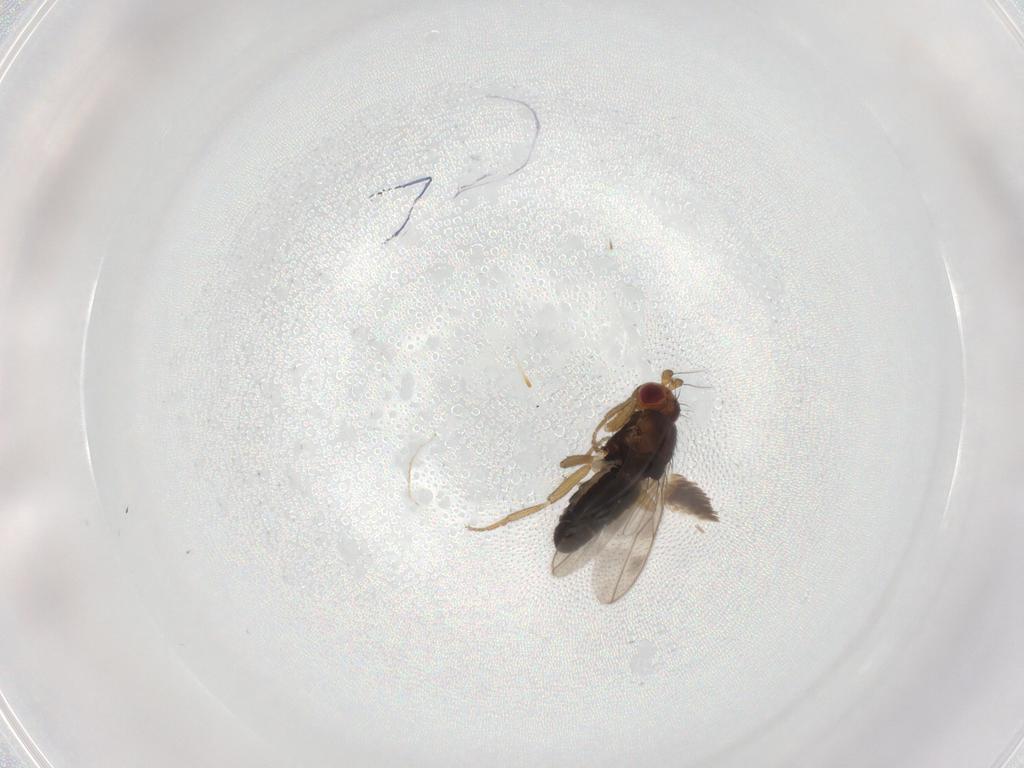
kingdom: Animalia
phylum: Arthropoda
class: Insecta
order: Diptera
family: Sphaeroceridae
